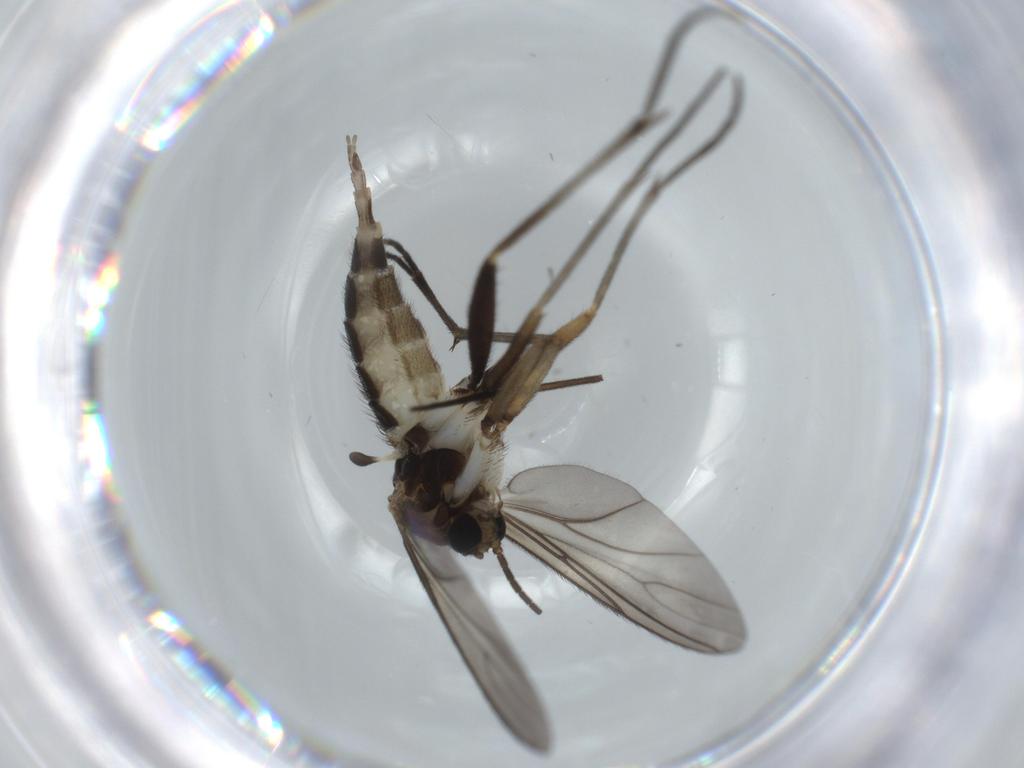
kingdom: Animalia
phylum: Arthropoda
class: Insecta
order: Diptera
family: Sciaridae
